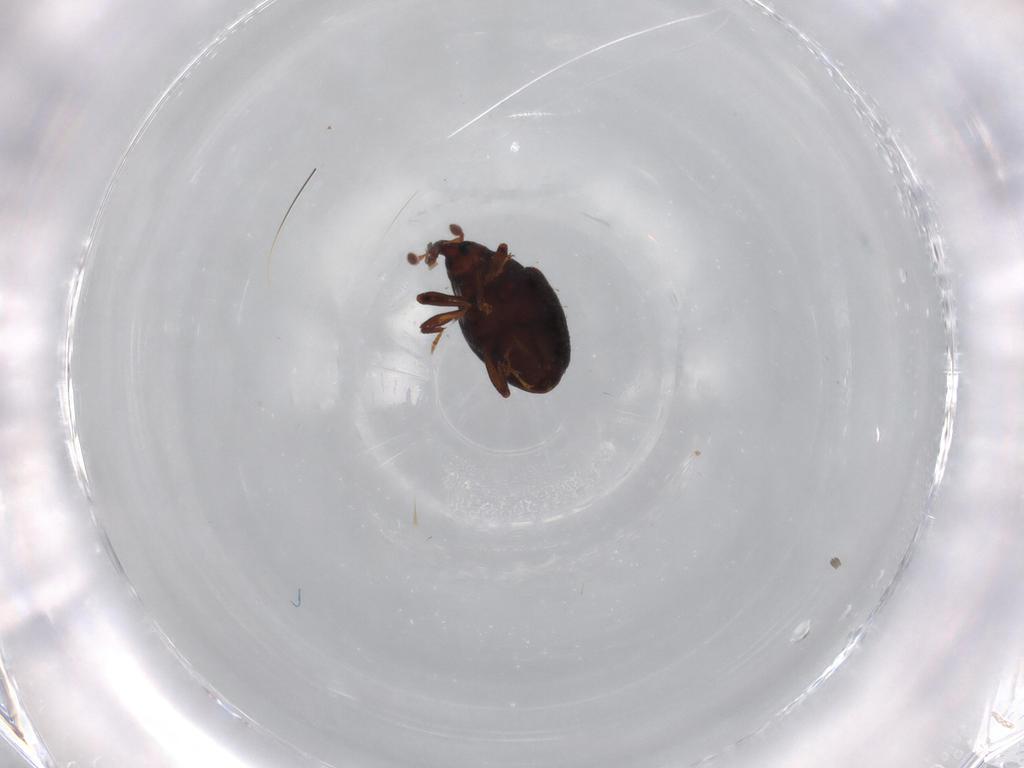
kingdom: Animalia
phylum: Arthropoda
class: Insecta
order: Coleoptera
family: Curculionidae
